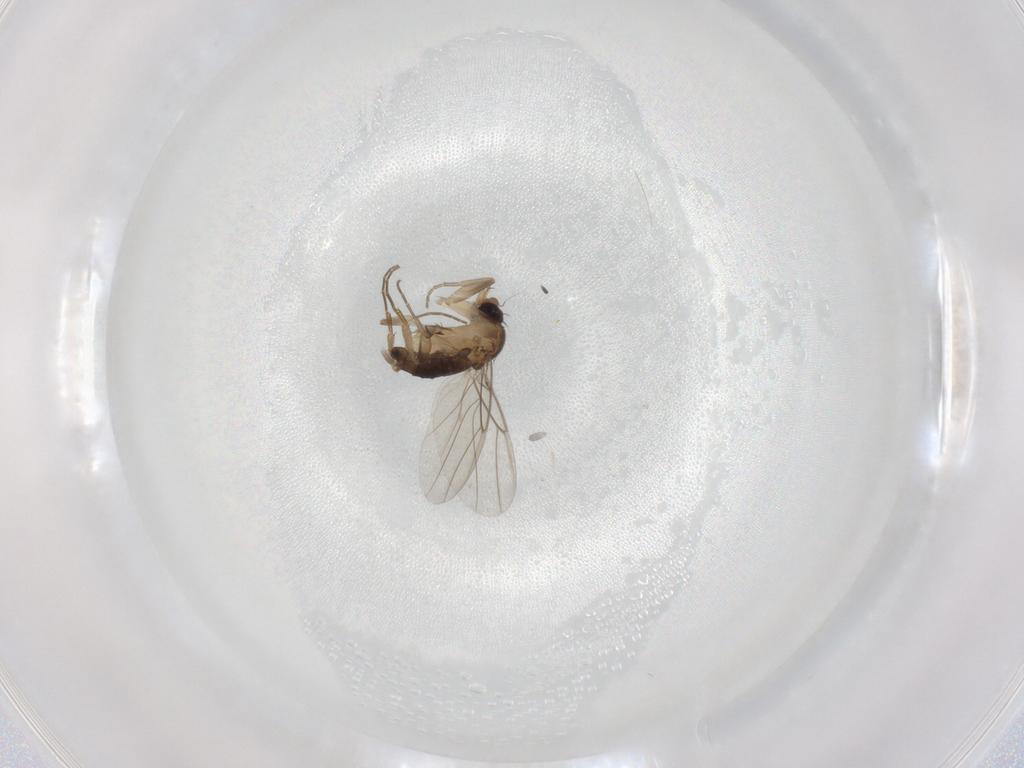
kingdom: Animalia
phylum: Arthropoda
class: Insecta
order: Diptera
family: Phoridae
